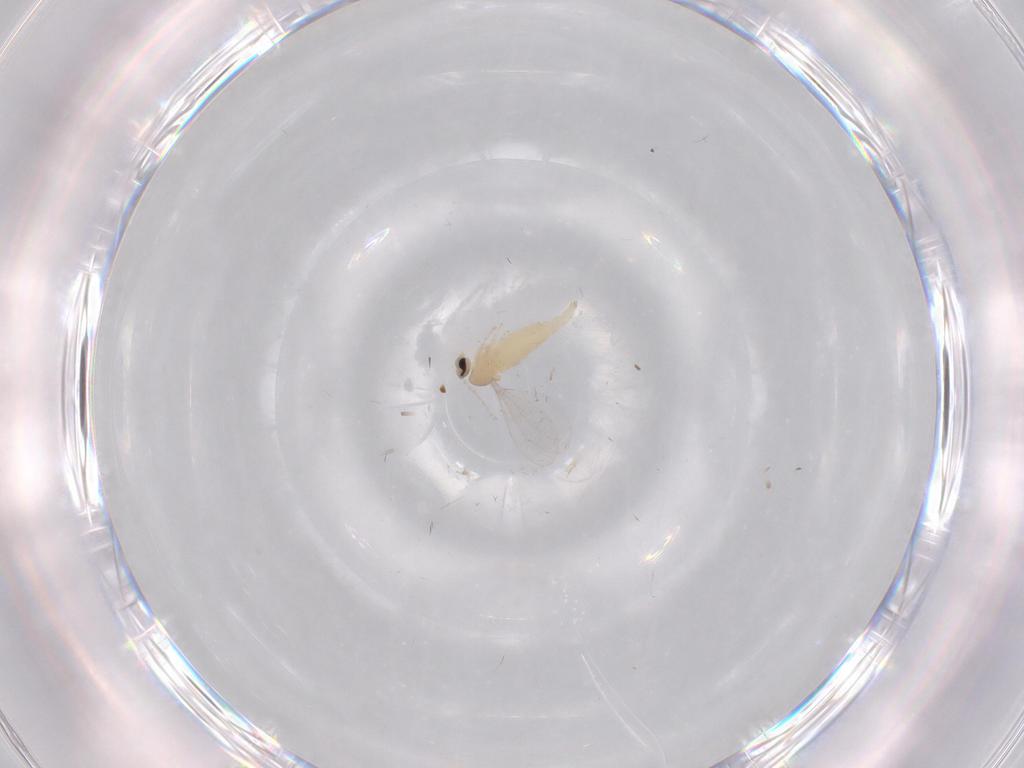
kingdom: Animalia
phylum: Arthropoda
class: Insecta
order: Diptera
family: Cecidomyiidae
